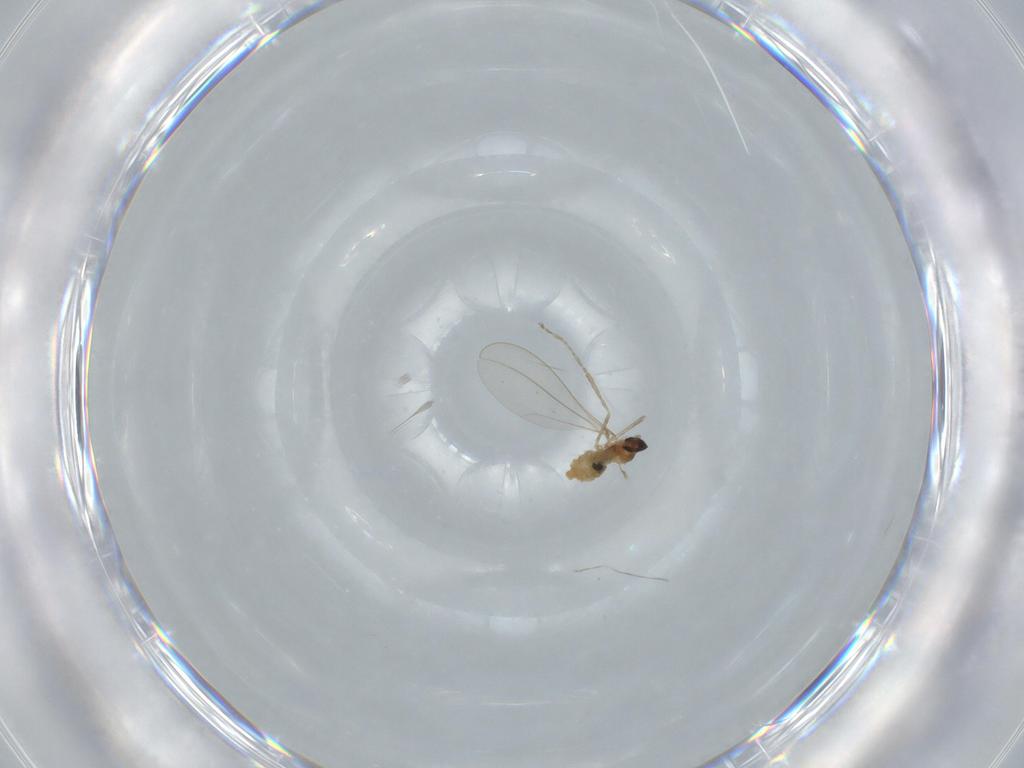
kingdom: Animalia
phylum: Arthropoda
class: Insecta
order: Diptera
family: Cecidomyiidae
